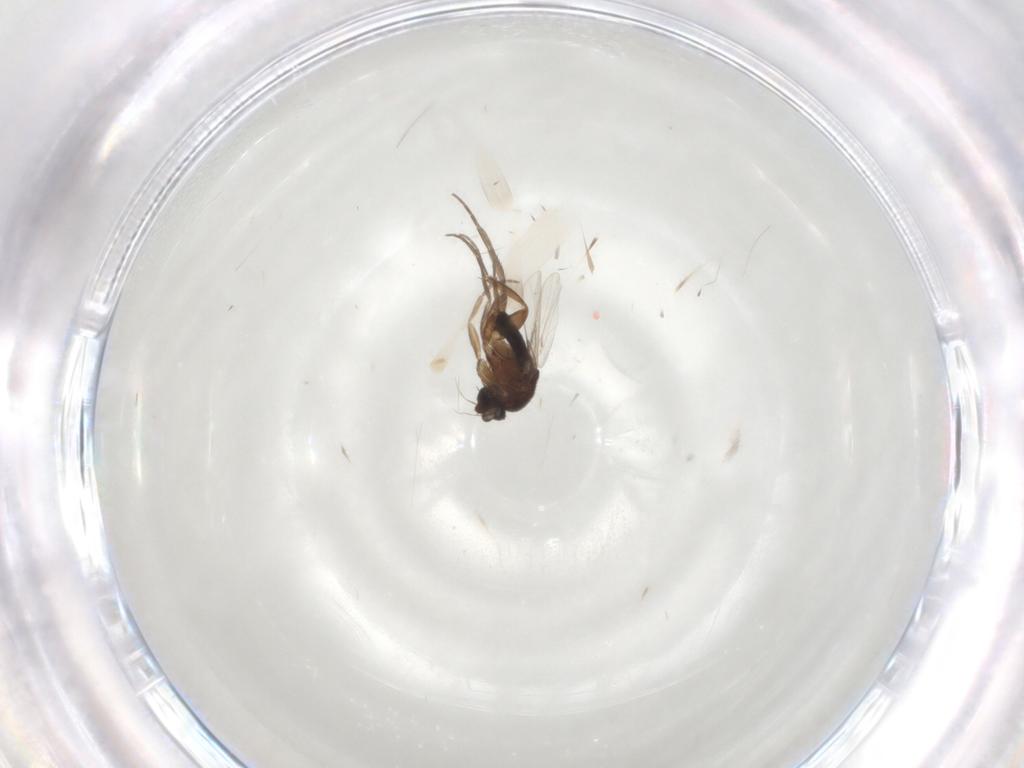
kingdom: Animalia
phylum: Arthropoda
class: Insecta
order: Diptera
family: Phoridae
